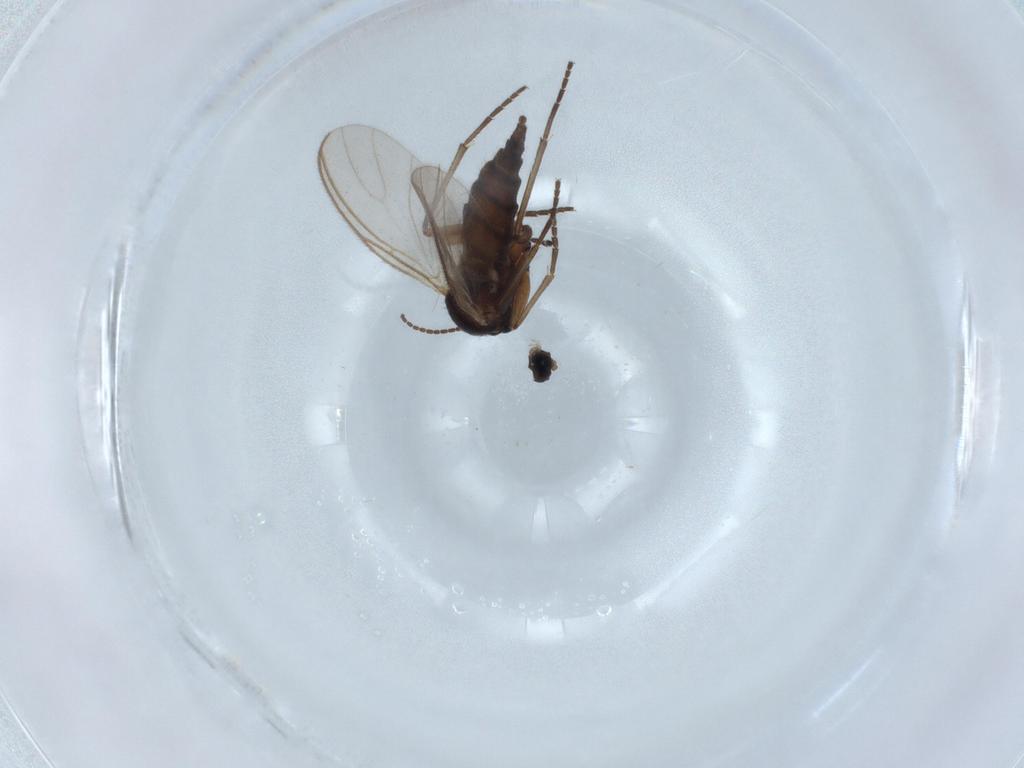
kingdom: Animalia
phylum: Arthropoda
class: Insecta
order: Diptera
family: Sciaridae
